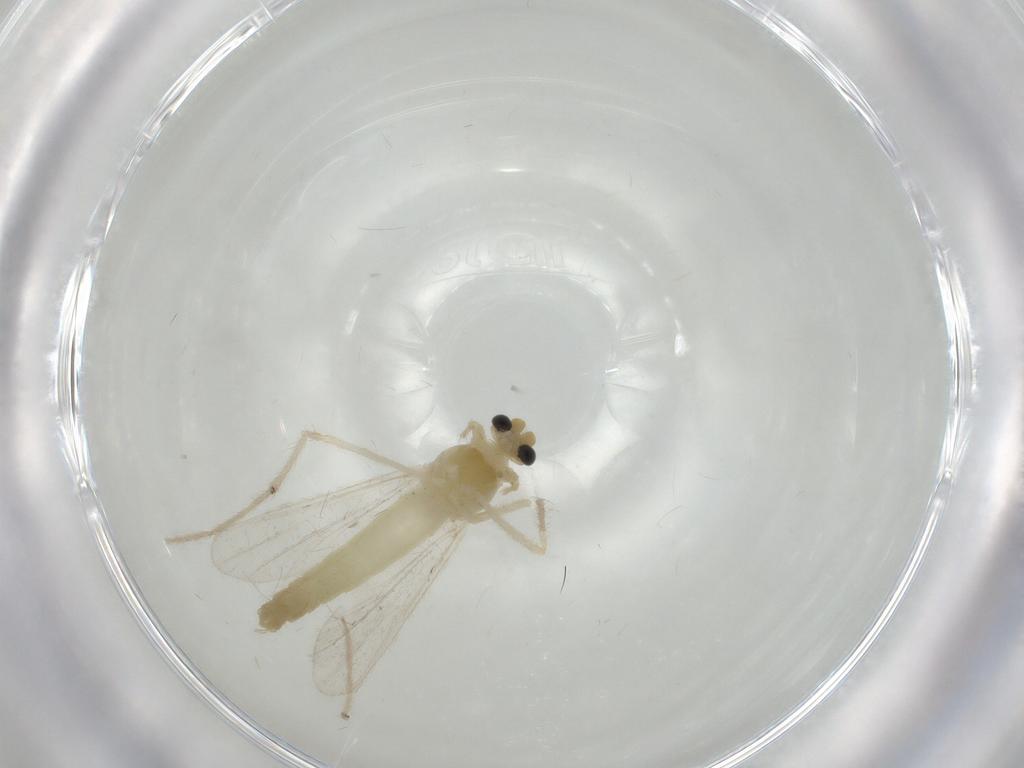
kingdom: Animalia
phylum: Arthropoda
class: Insecta
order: Diptera
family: Chironomidae
